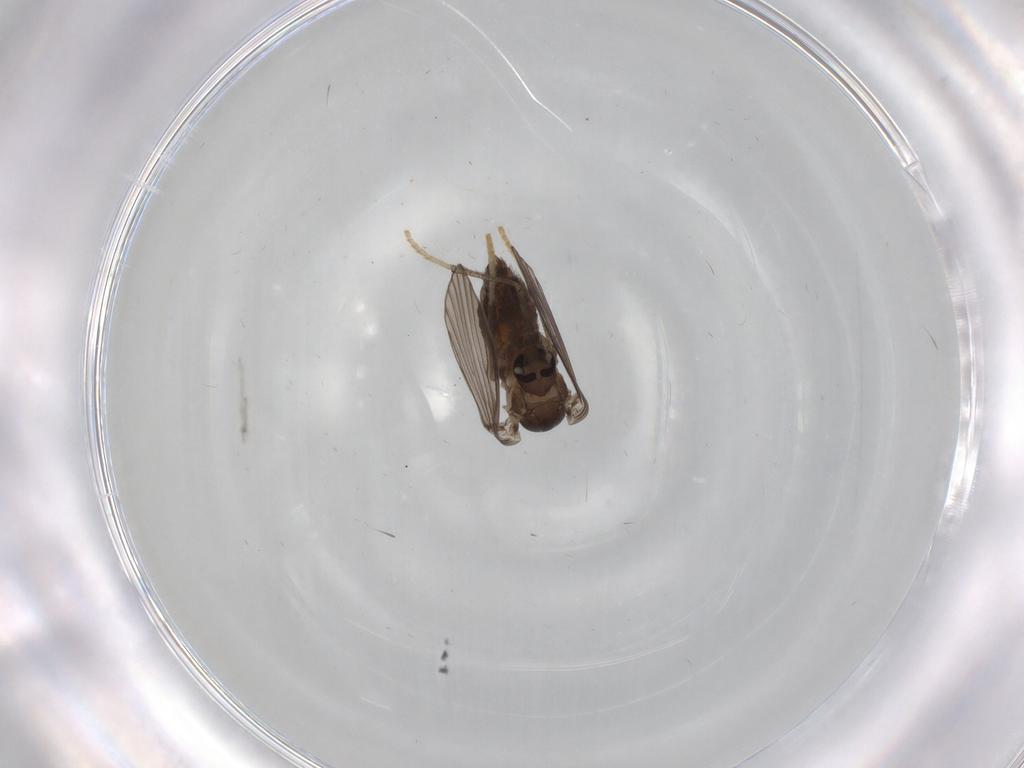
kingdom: Animalia
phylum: Arthropoda
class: Insecta
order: Diptera
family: Psychodidae
